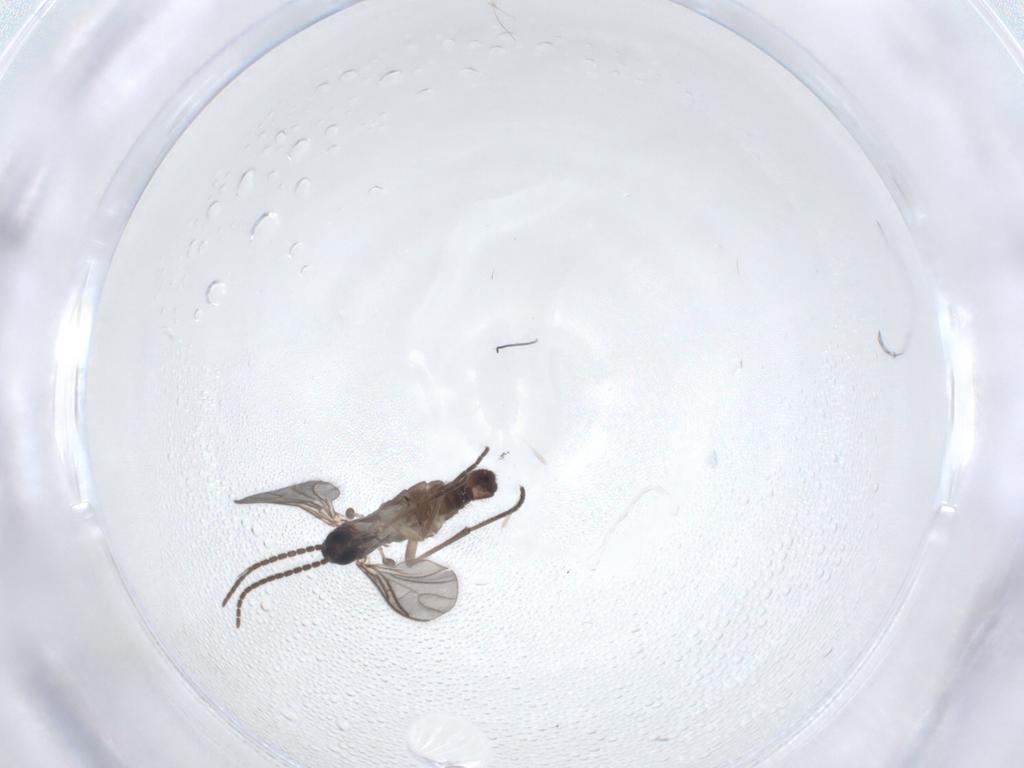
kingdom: Animalia
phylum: Arthropoda
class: Insecta
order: Diptera
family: Sciaridae
